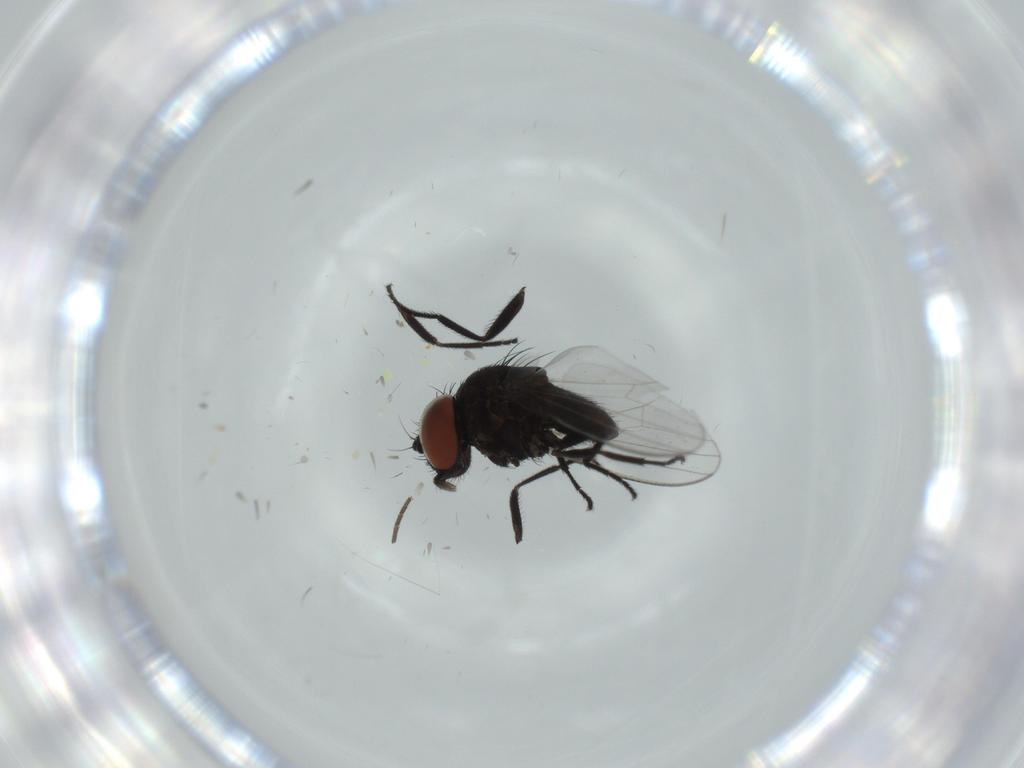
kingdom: Animalia
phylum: Arthropoda
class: Insecta
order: Diptera
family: Milichiidae
